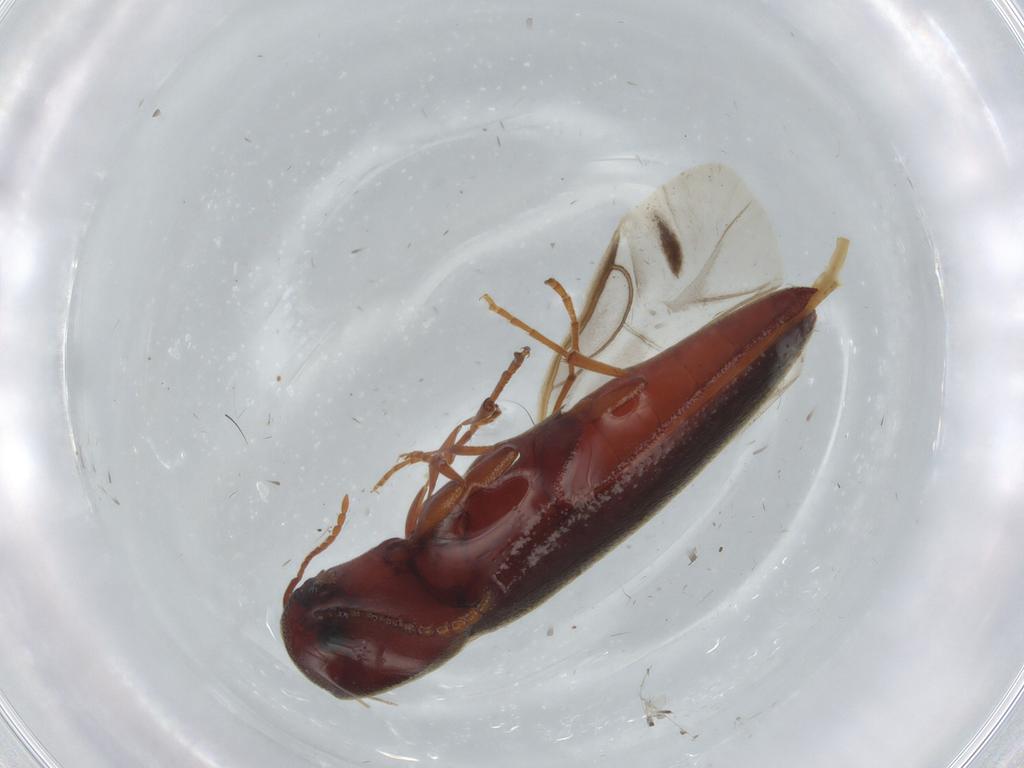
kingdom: Animalia
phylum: Arthropoda
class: Insecta
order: Coleoptera
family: Eucnemidae
